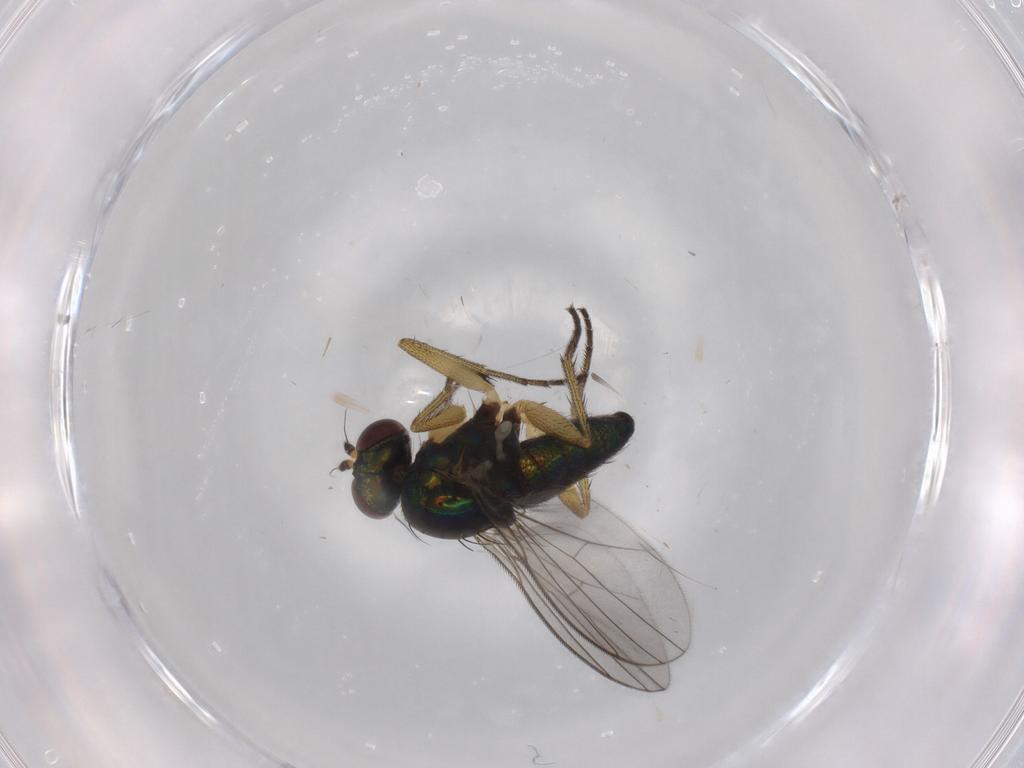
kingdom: Animalia
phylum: Arthropoda
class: Insecta
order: Diptera
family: Dolichopodidae
